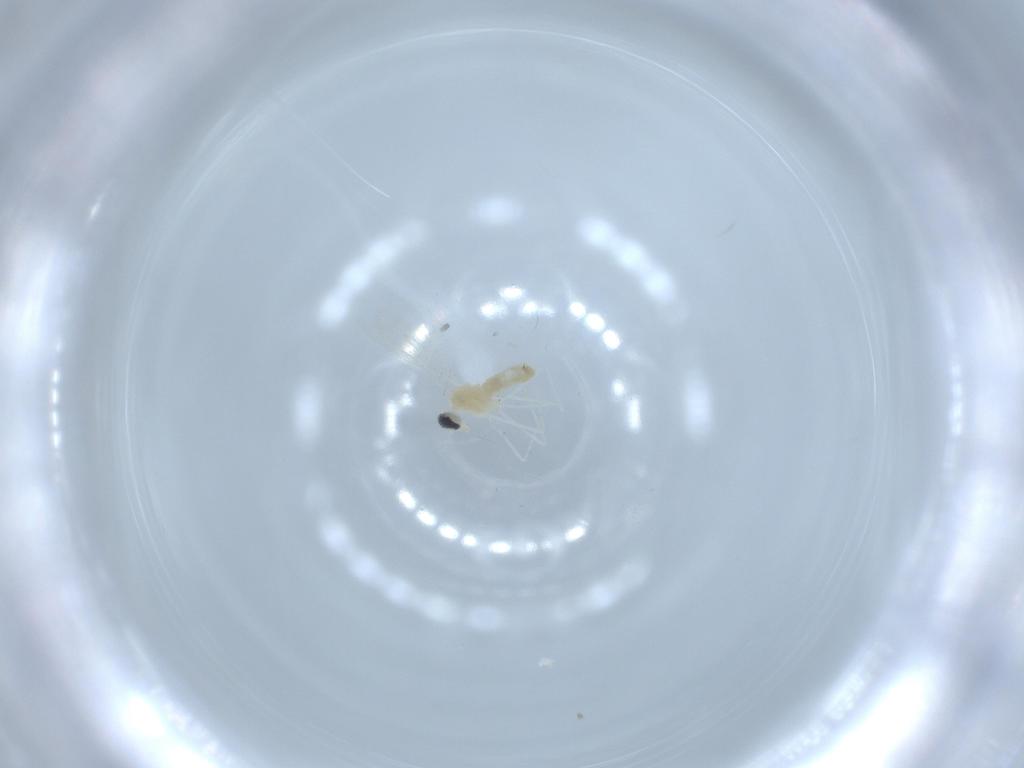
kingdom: Animalia
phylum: Arthropoda
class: Insecta
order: Diptera
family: Cecidomyiidae
